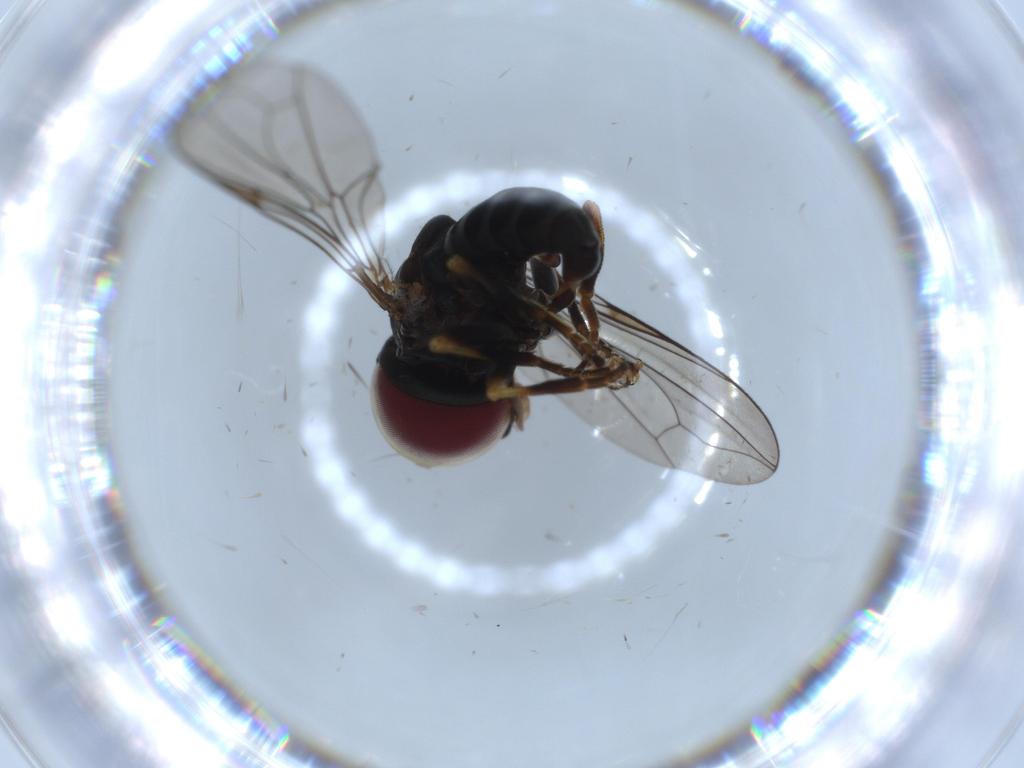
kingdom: Animalia
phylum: Arthropoda
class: Insecta
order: Diptera
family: Pipunculidae
